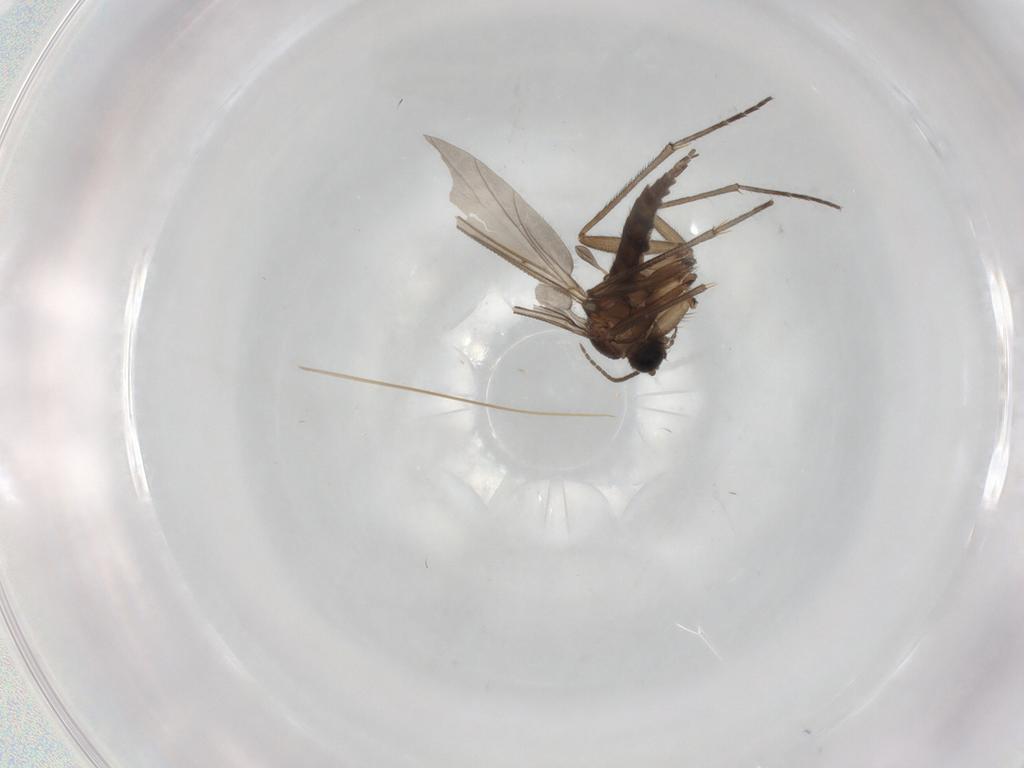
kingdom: Animalia
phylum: Arthropoda
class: Insecta
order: Diptera
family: Sciaridae
